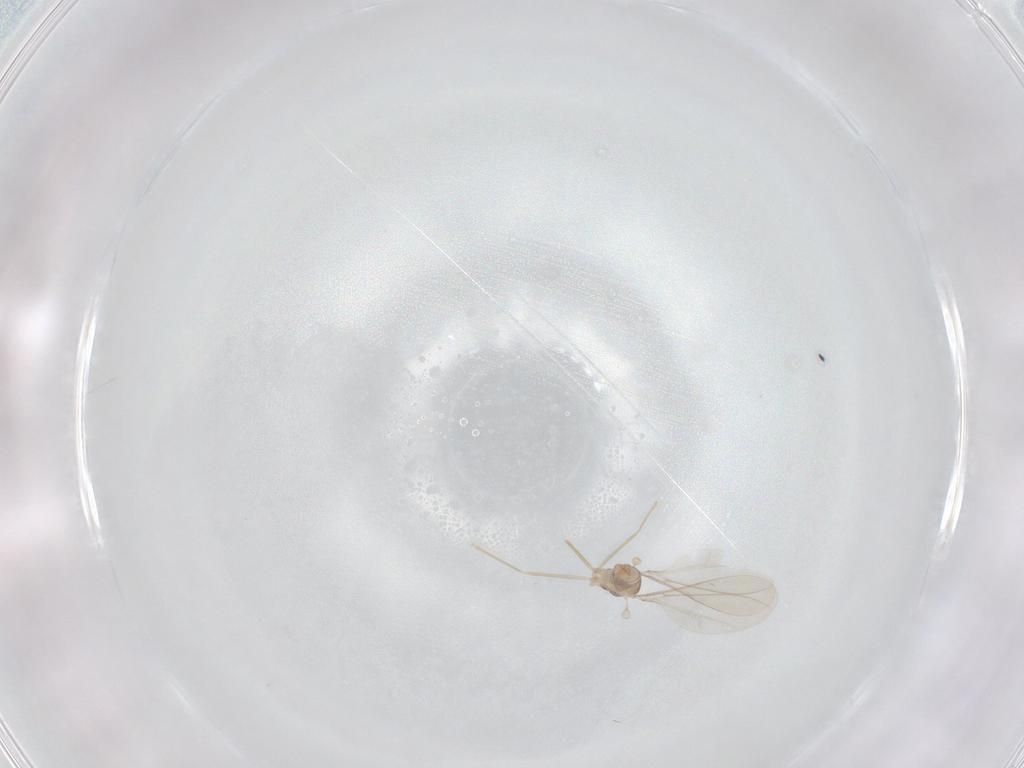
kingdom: Animalia
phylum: Arthropoda
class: Insecta
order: Diptera
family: Cecidomyiidae
